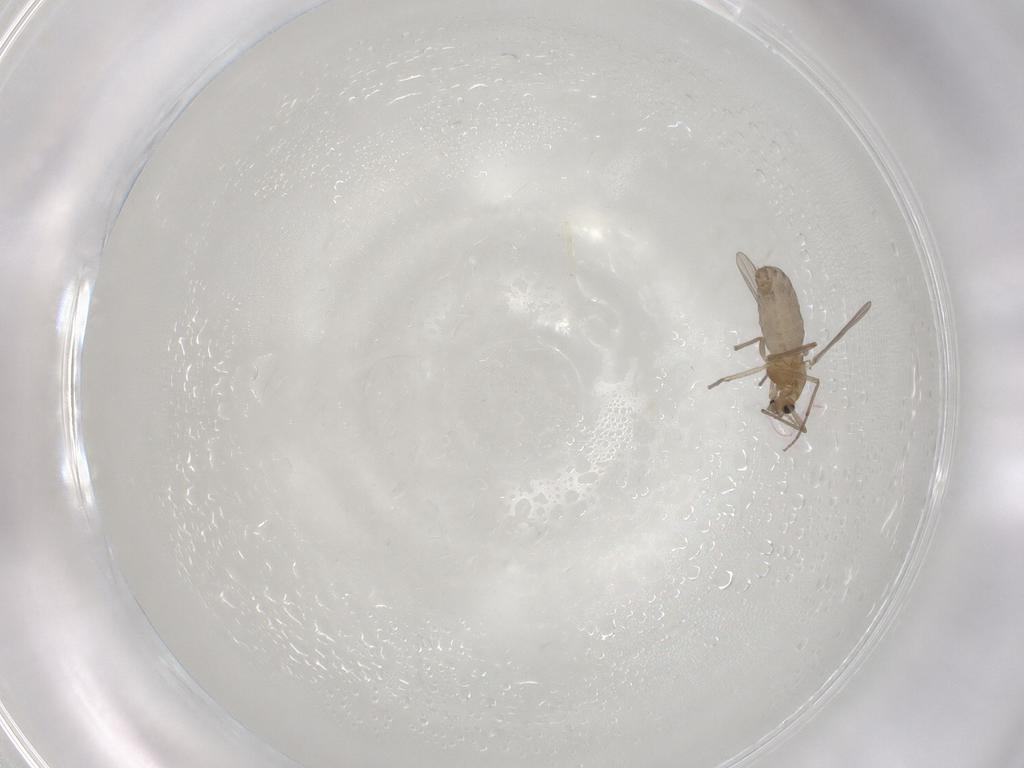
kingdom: Animalia
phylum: Arthropoda
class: Insecta
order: Diptera
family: Chironomidae
